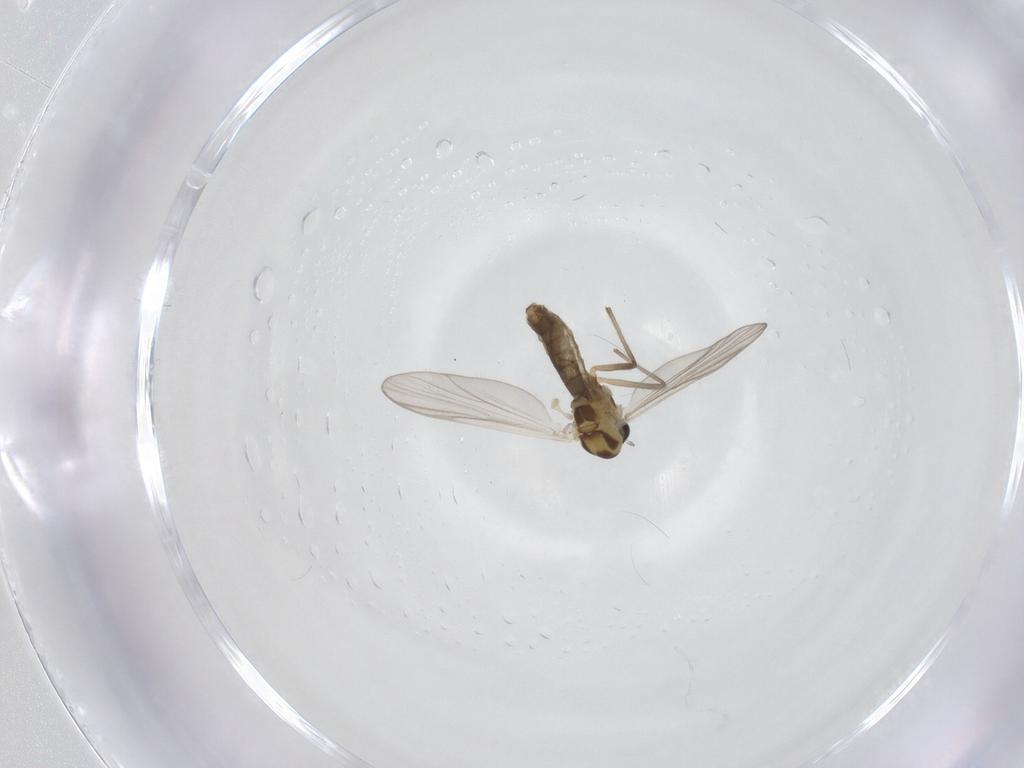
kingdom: Animalia
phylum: Arthropoda
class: Insecta
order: Diptera
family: Chironomidae
